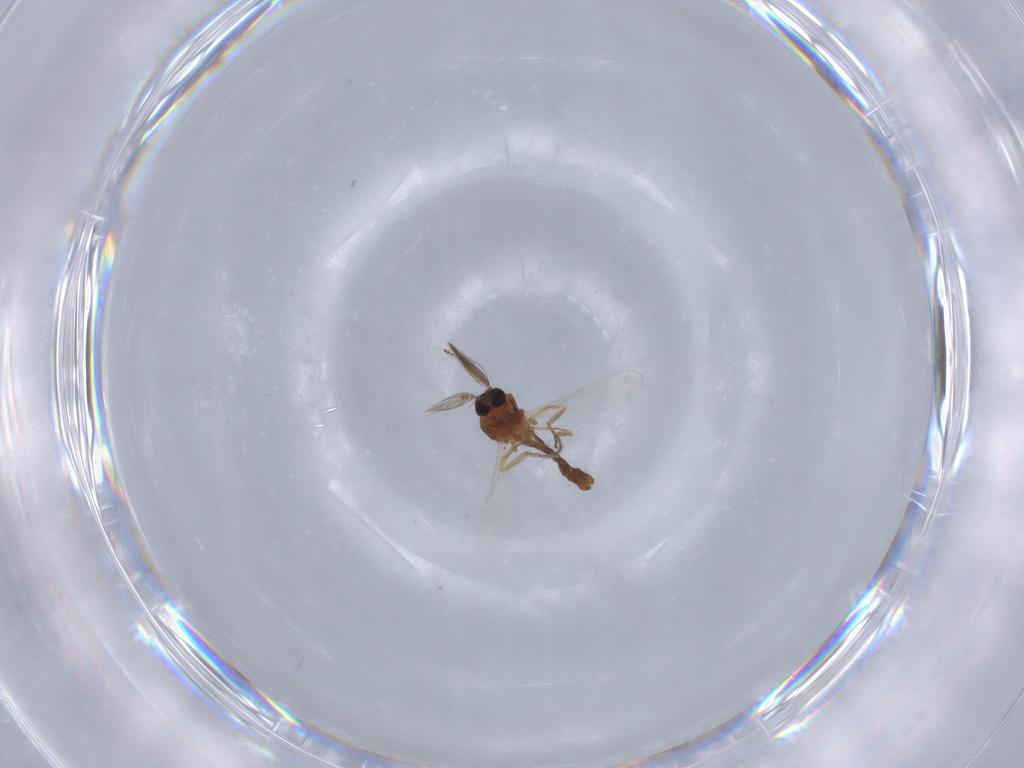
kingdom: Animalia
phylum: Arthropoda
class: Insecta
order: Diptera
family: Ceratopogonidae
